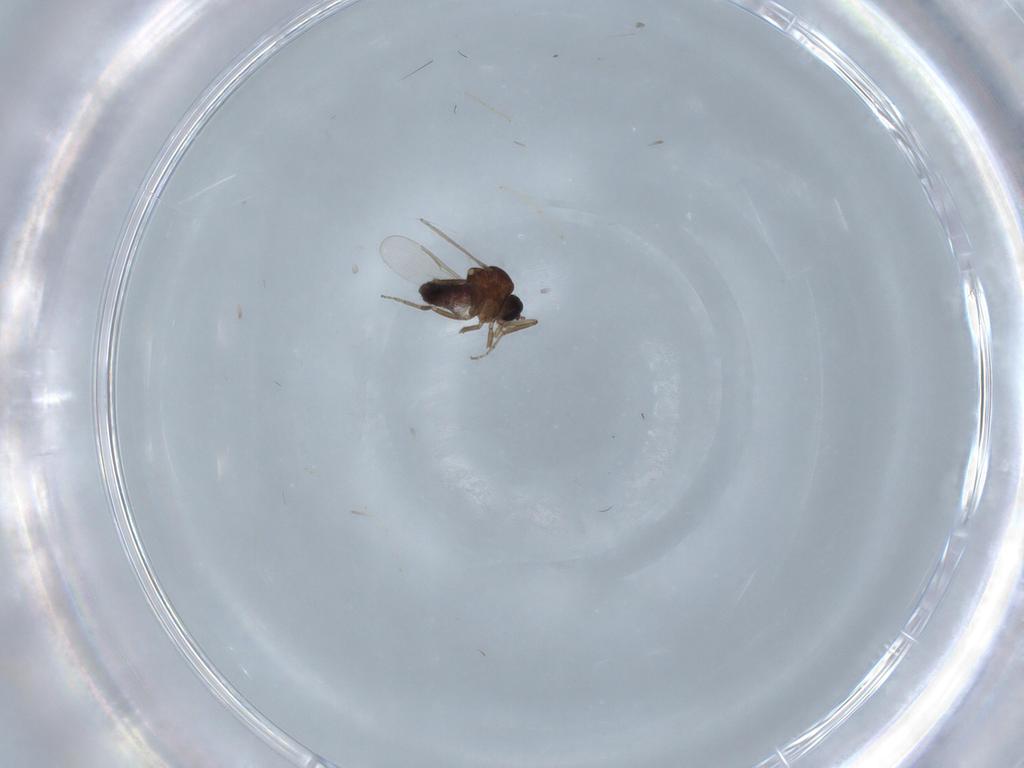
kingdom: Animalia
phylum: Arthropoda
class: Insecta
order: Diptera
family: Ceratopogonidae
